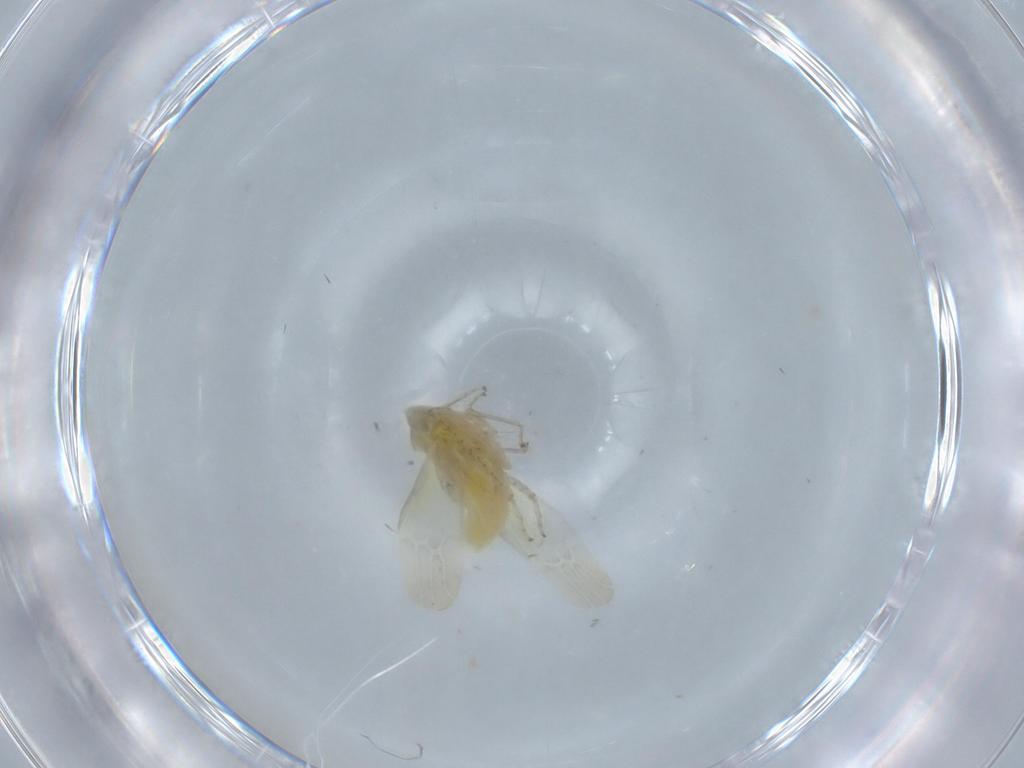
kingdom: Animalia
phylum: Arthropoda
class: Insecta
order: Hemiptera
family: Cicadellidae
